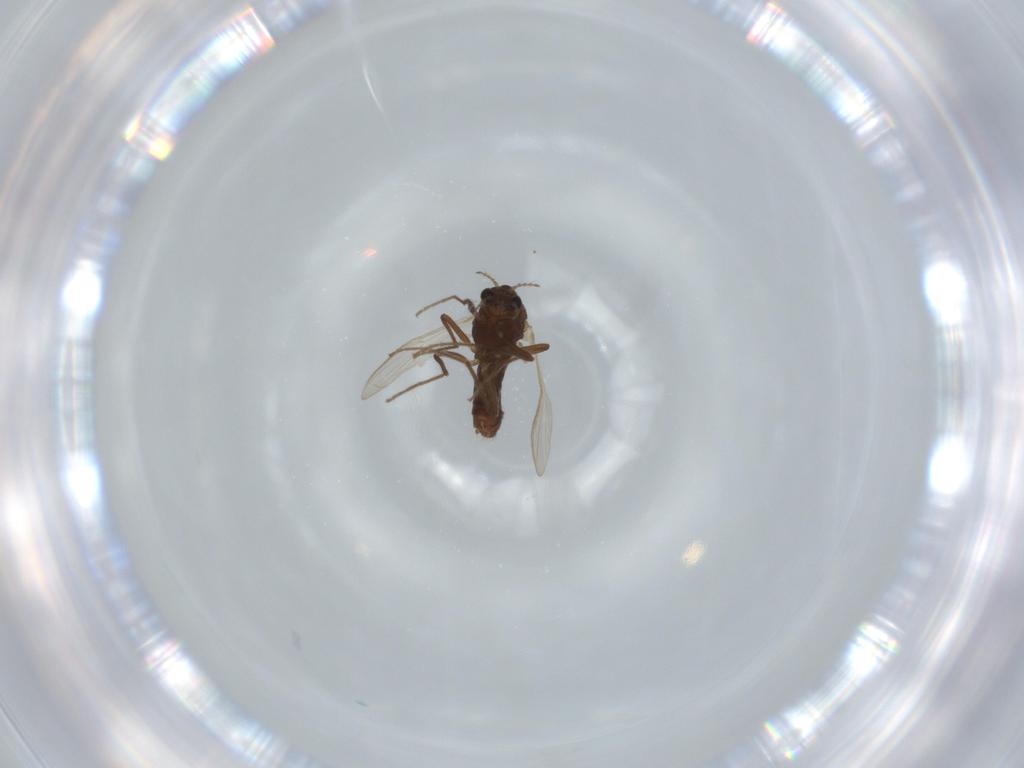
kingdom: Animalia
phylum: Arthropoda
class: Insecta
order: Diptera
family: Chironomidae
